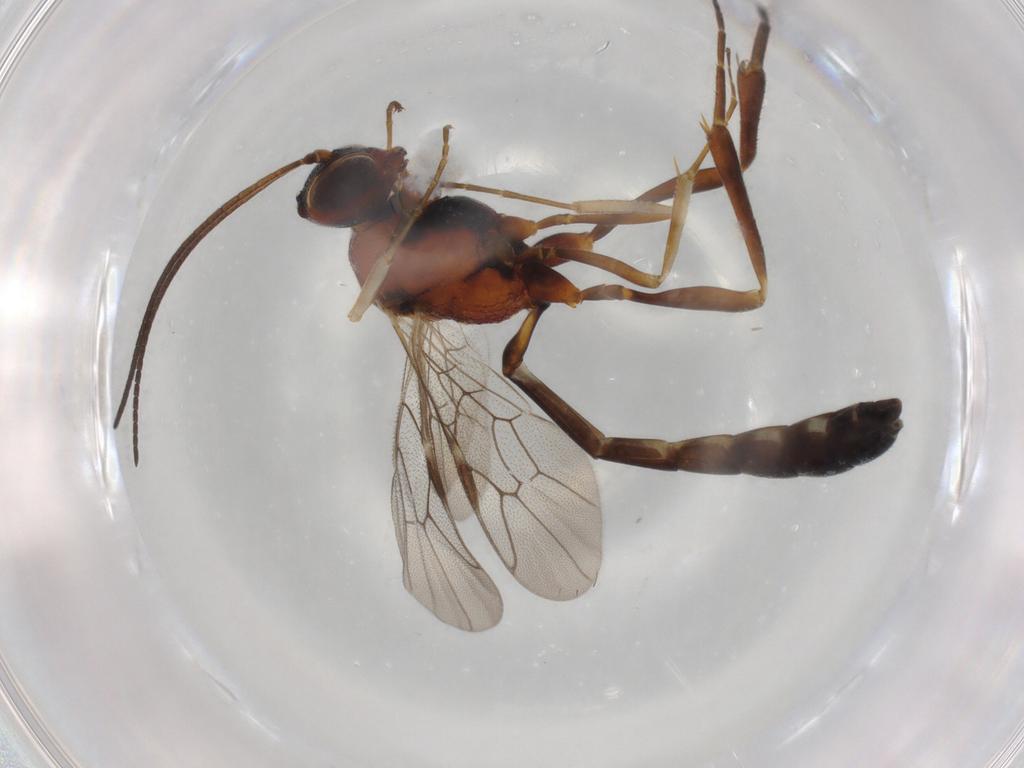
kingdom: Animalia
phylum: Arthropoda
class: Insecta
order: Hymenoptera
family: Ichneumonidae
